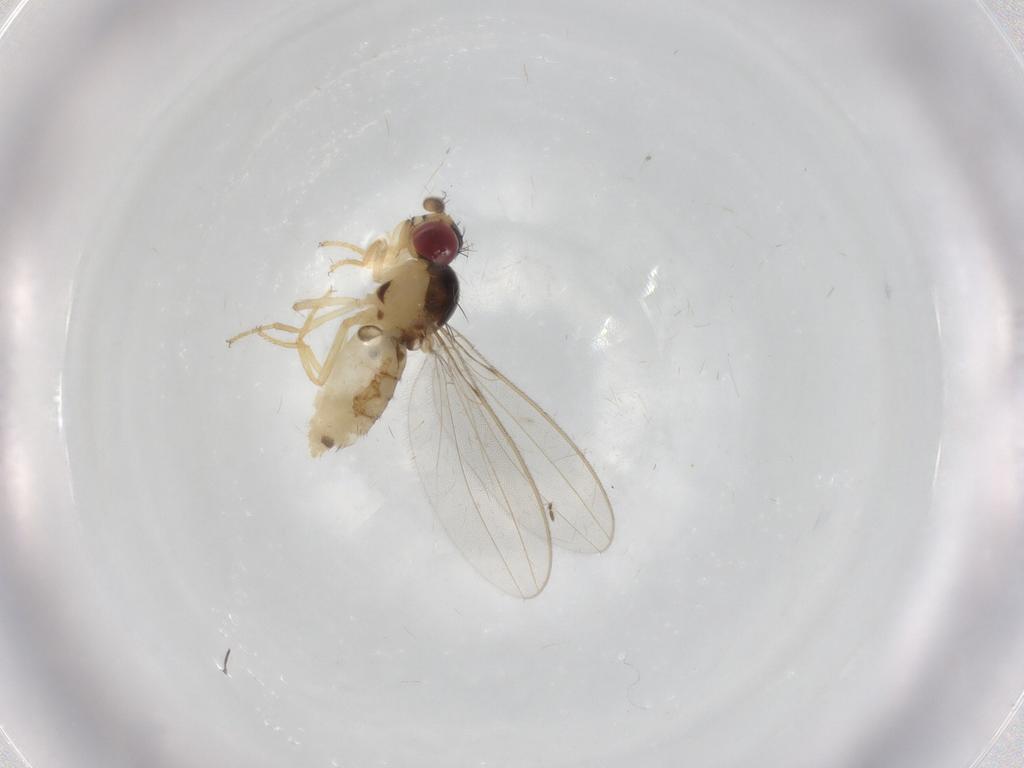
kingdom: Animalia
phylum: Arthropoda
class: Insecta
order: Diptera
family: Ceratopogonidae
